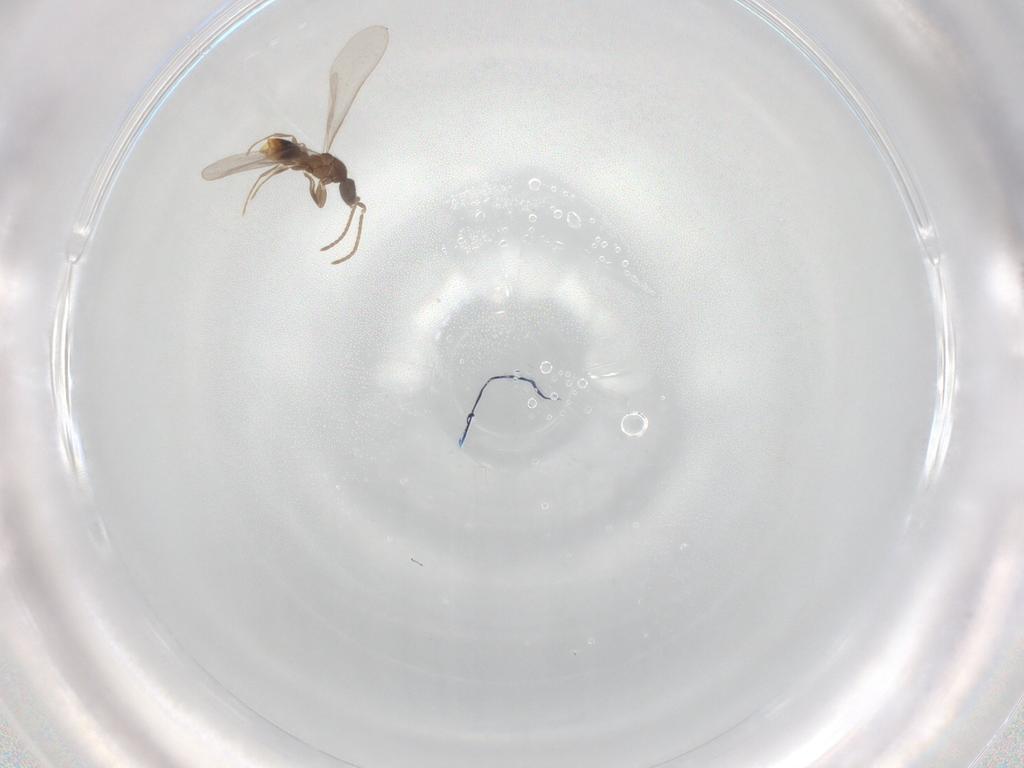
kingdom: Animalia
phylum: Arthropoda
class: Insecta
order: Hymenoptera
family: Formicidae
